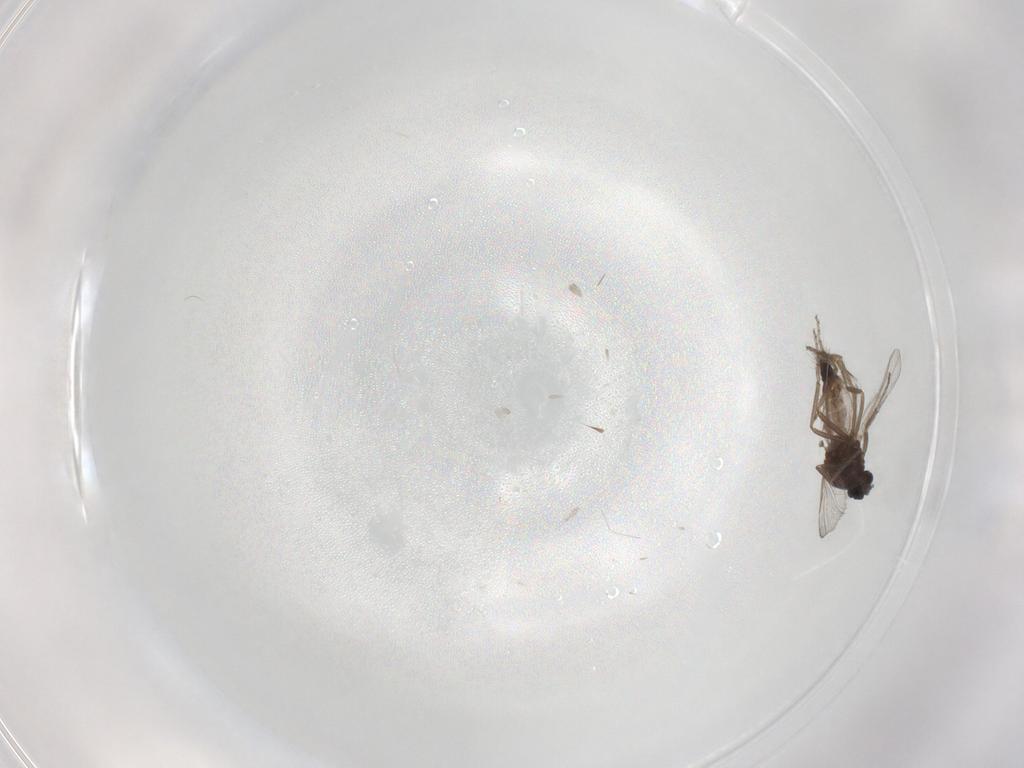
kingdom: Animalia
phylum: Arthropoda
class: Insecta
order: Diptera
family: Ceratopogonidae
